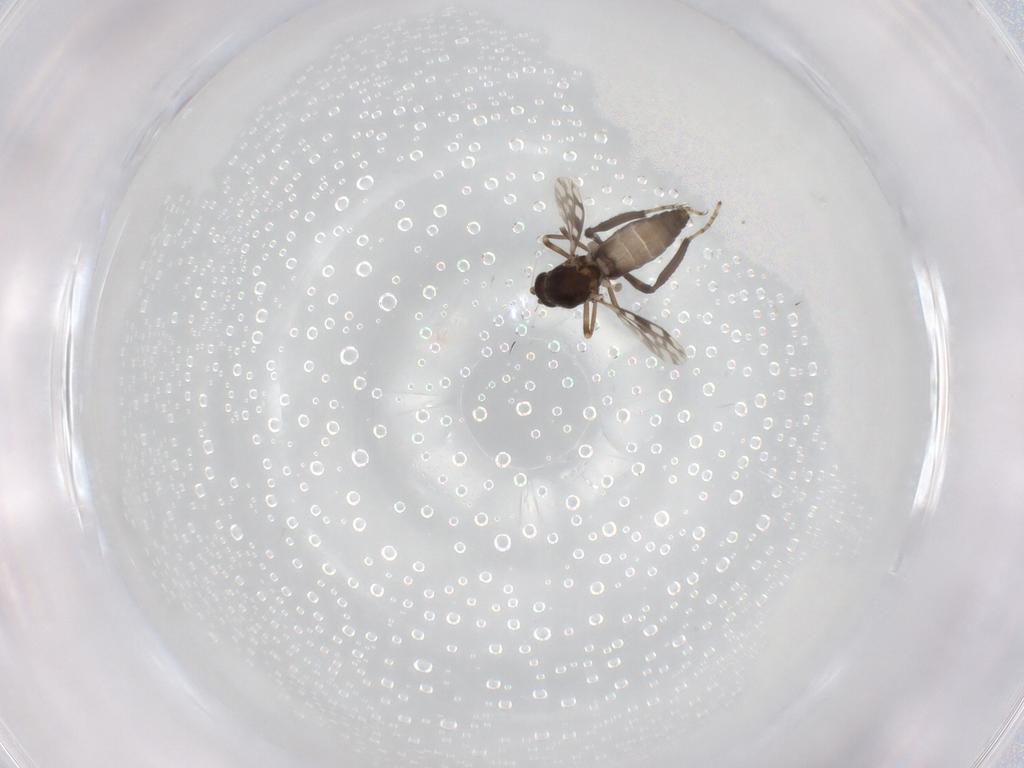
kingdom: Animalia
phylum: Arthropoda
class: Insecta
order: Diptera
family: Ceratopogonidae
